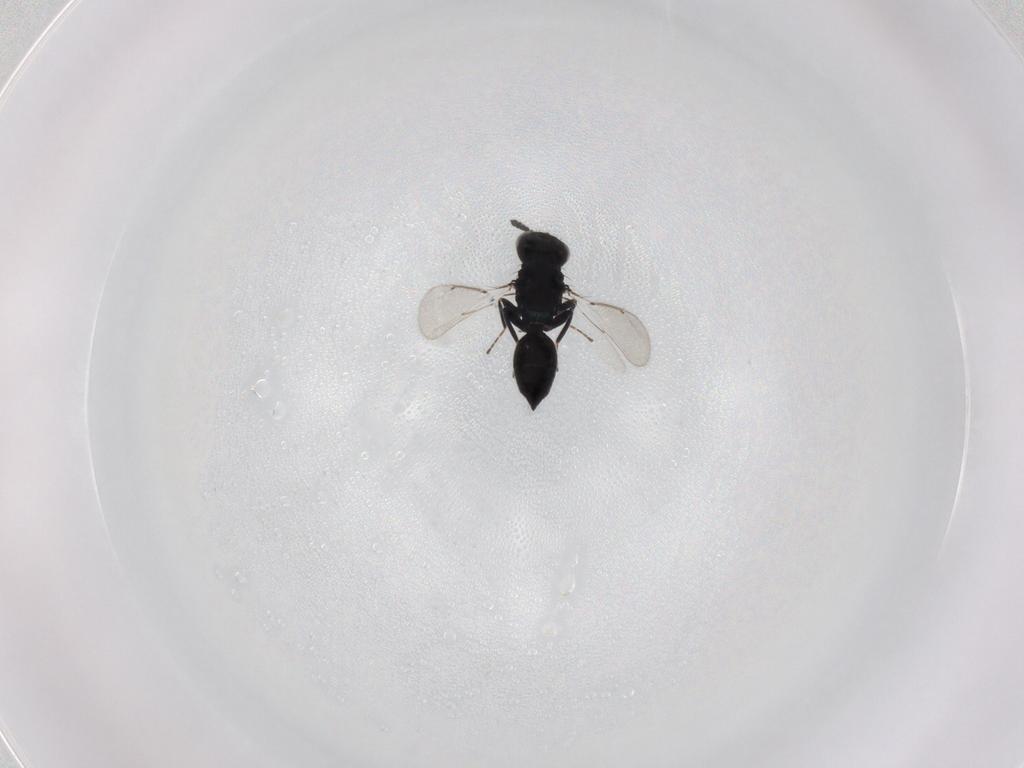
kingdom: Animalia
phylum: Arthropoda
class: Insecta
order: Hymenoptera
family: Eulophidae
